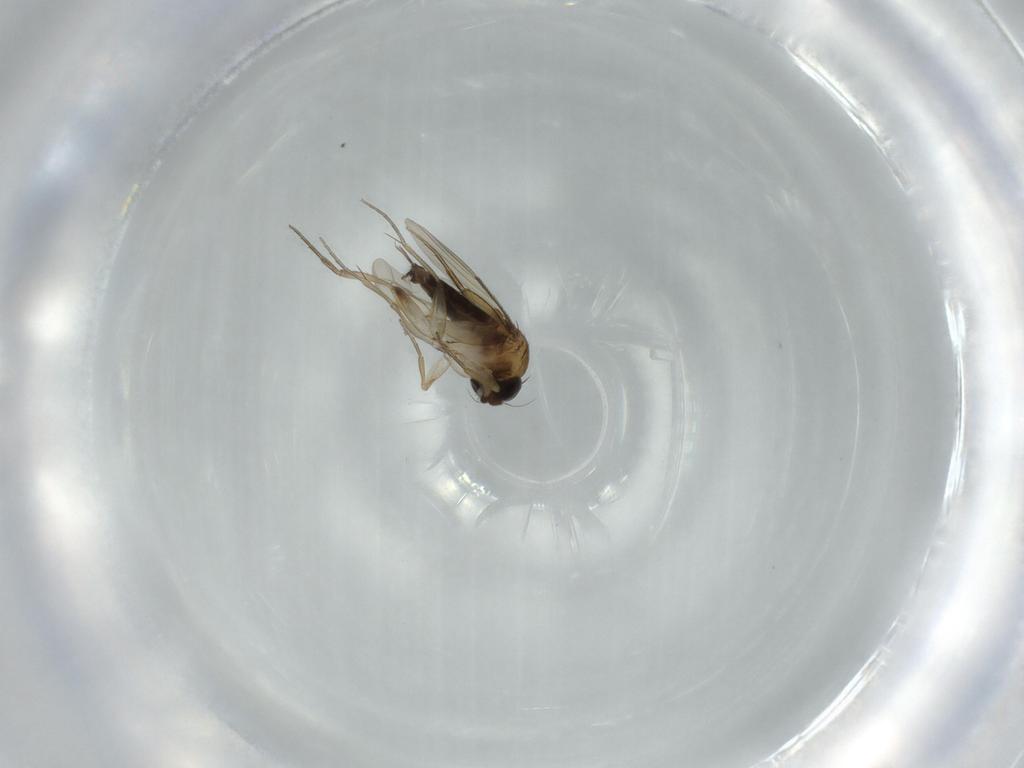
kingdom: Animalia
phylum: Arthropoda
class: Insecta
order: Diptera
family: Phoridae
